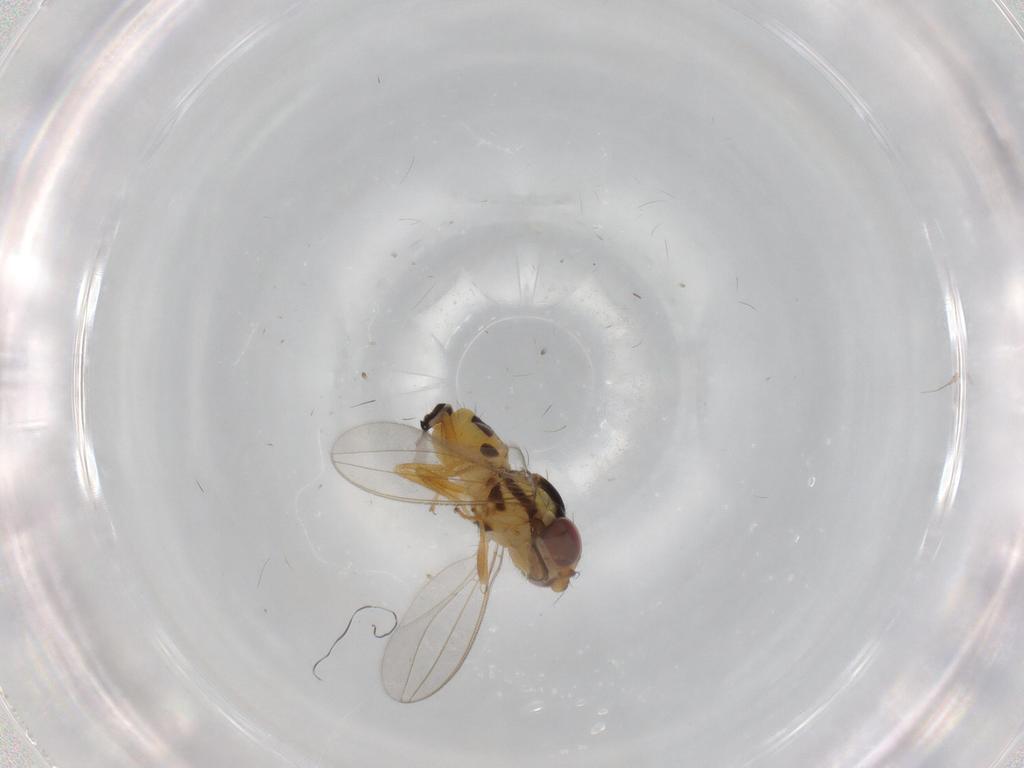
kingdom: Animalia
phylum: Arthropoda
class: Insecta
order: Diptera
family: Asteiidae
